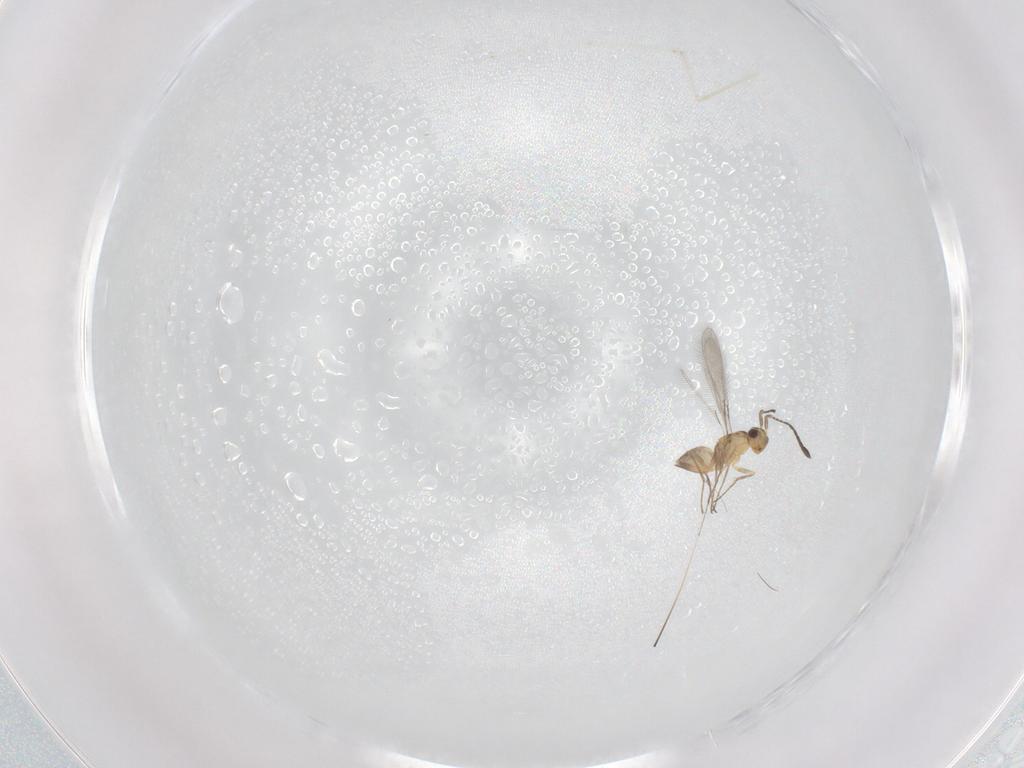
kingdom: Animalia
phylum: Arthropoda
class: Insecta
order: Hymenoptera
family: Mymaridae
